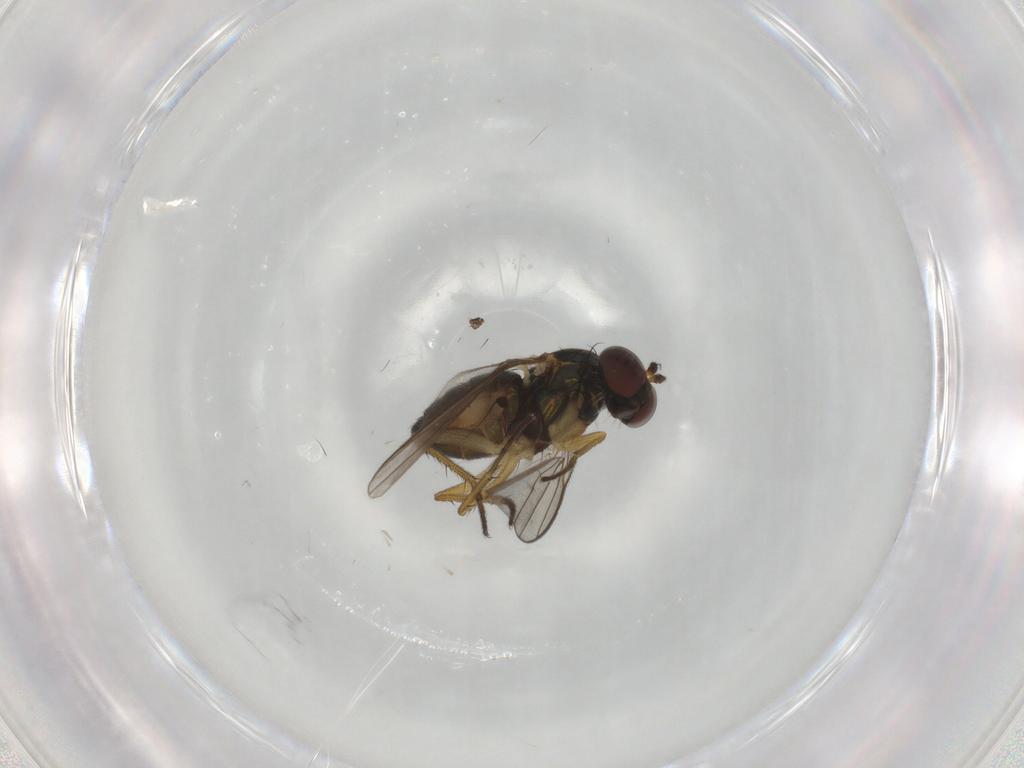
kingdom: Animalia
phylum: Arthropoda
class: Insecta
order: Diptera
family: Dolichopodidae
